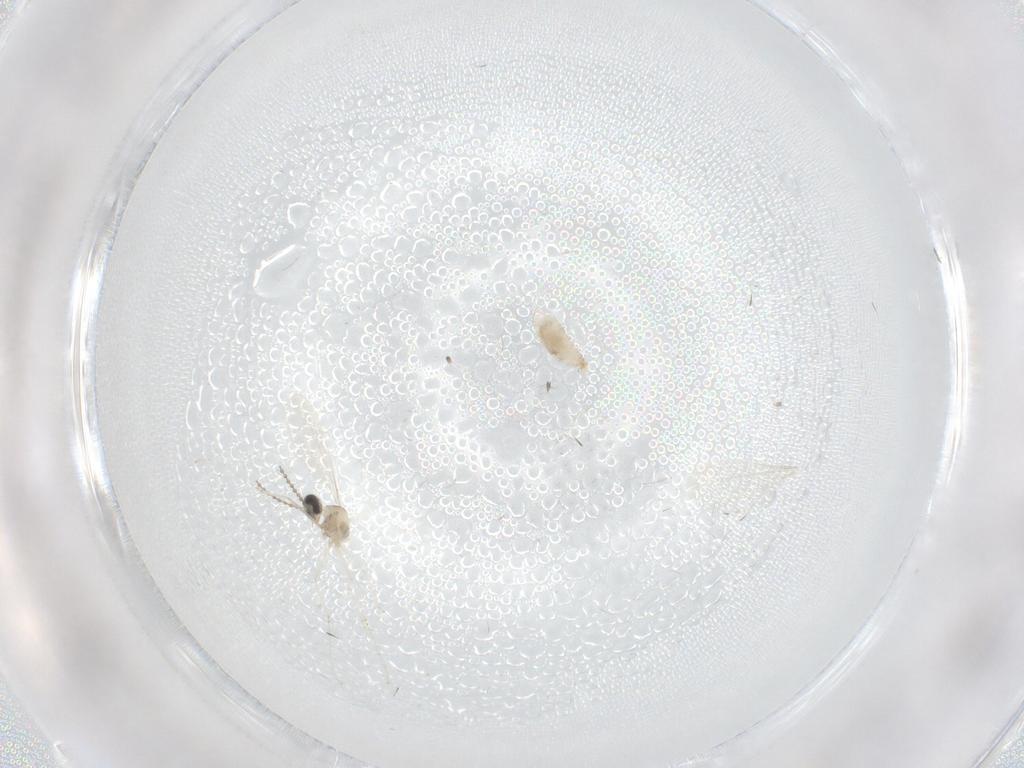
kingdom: Animalia
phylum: Arthropoda
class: Insecta
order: Diptera
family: Cecidomyiidae
